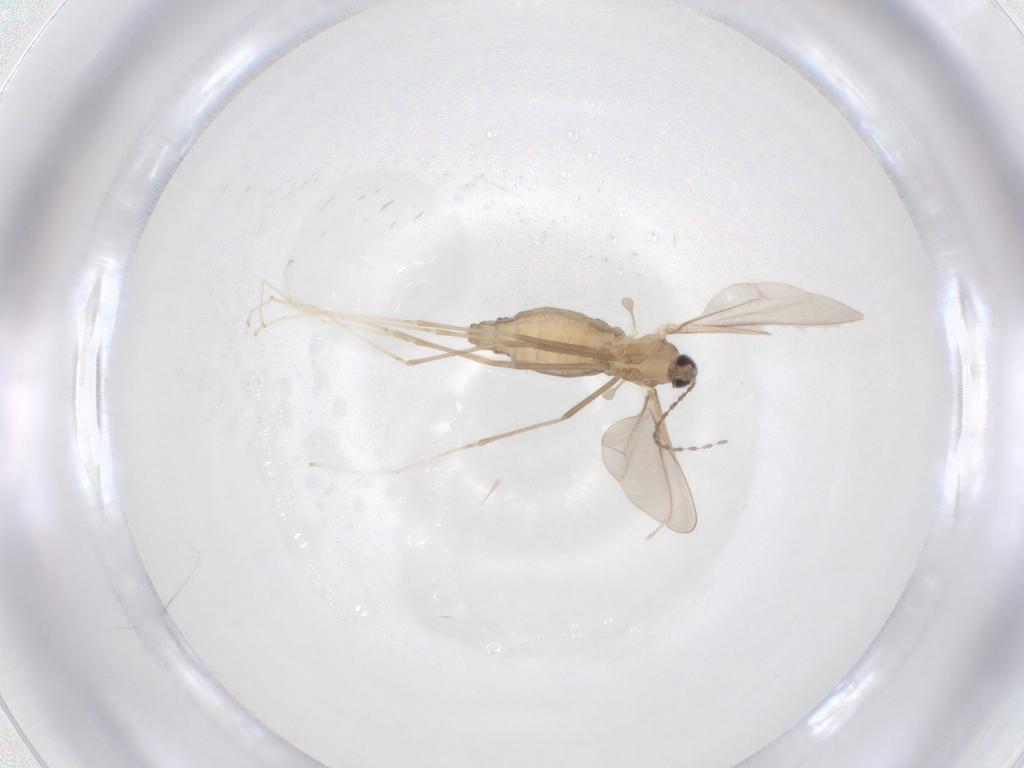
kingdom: Animalia
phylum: Arthropoda
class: Insecta
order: Diptera
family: Cecidomyiidae
